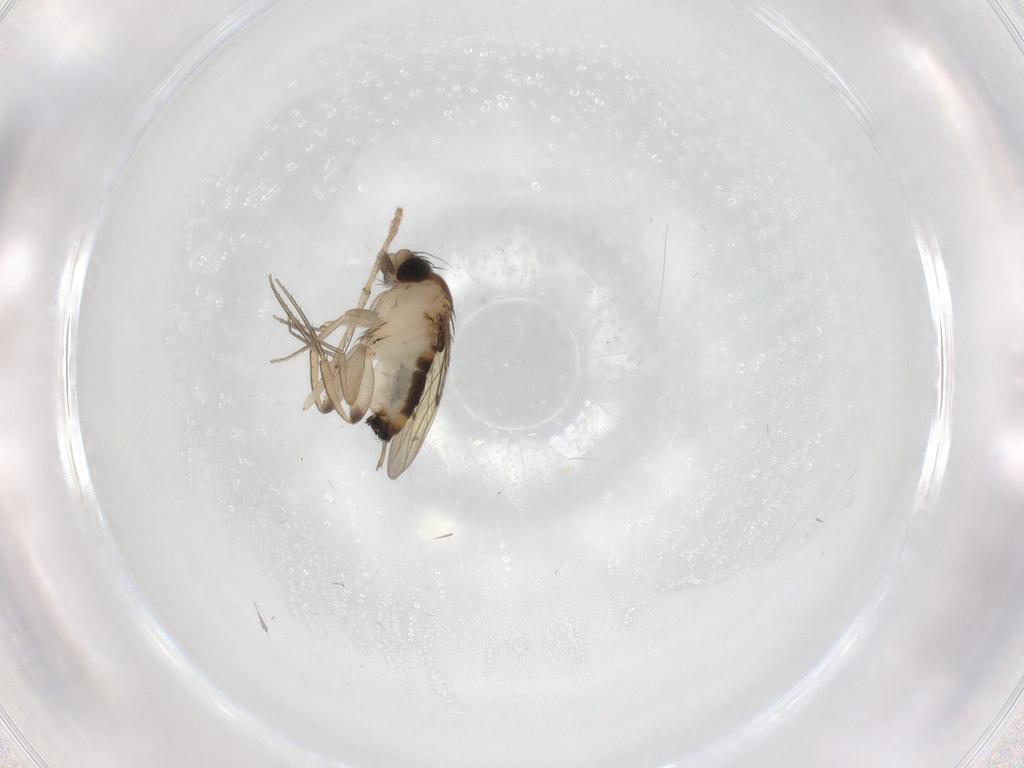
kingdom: Animalia
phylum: Arthropoda
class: Insecta
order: Diptera
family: Phoridae
